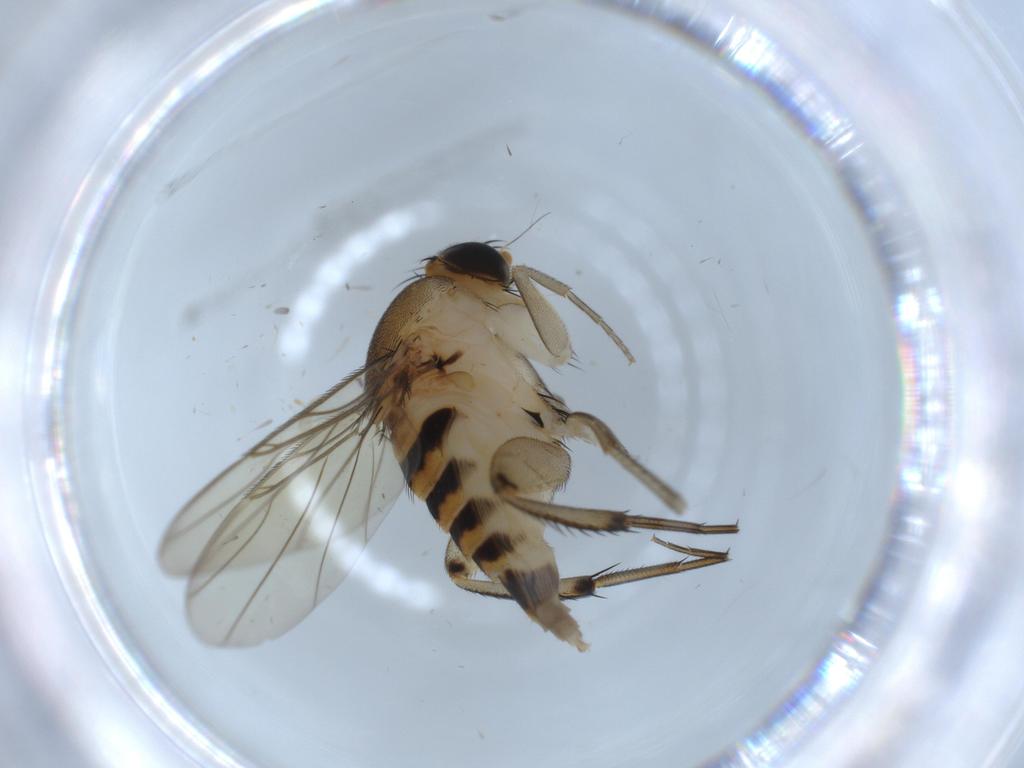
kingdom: Animalia
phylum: Arthropoda
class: Insecta
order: Diptera
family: Phoridae
